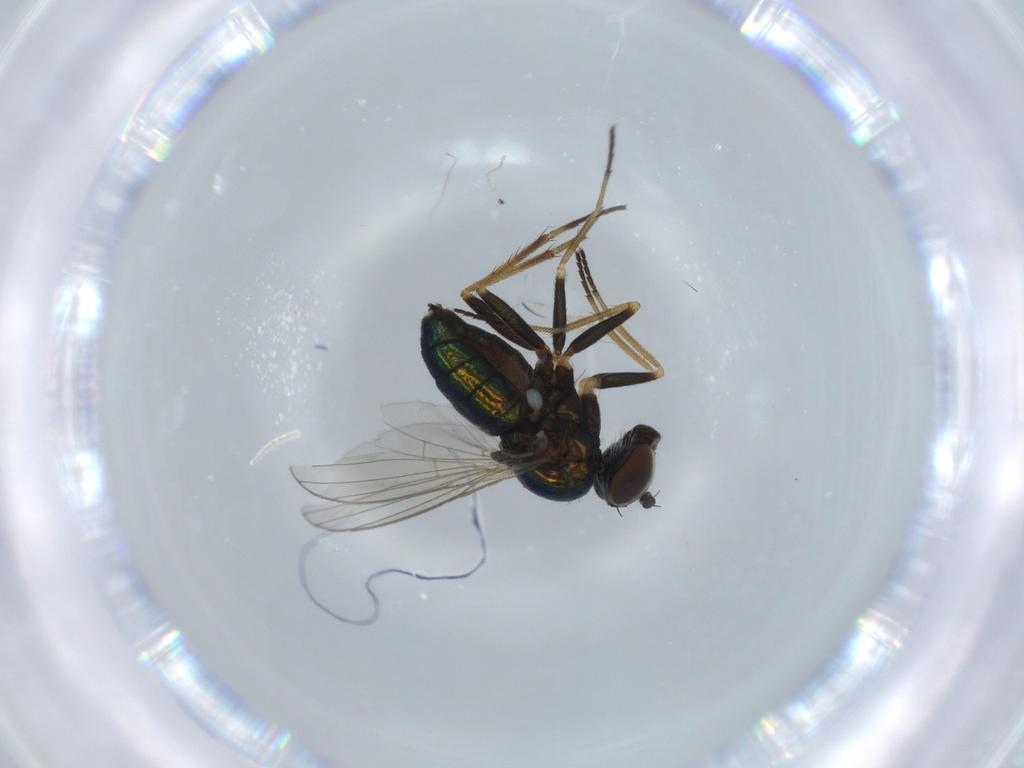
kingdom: Animalia
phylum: Arthropoda
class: Insecta
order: Diptera
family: Dolichopodidae
